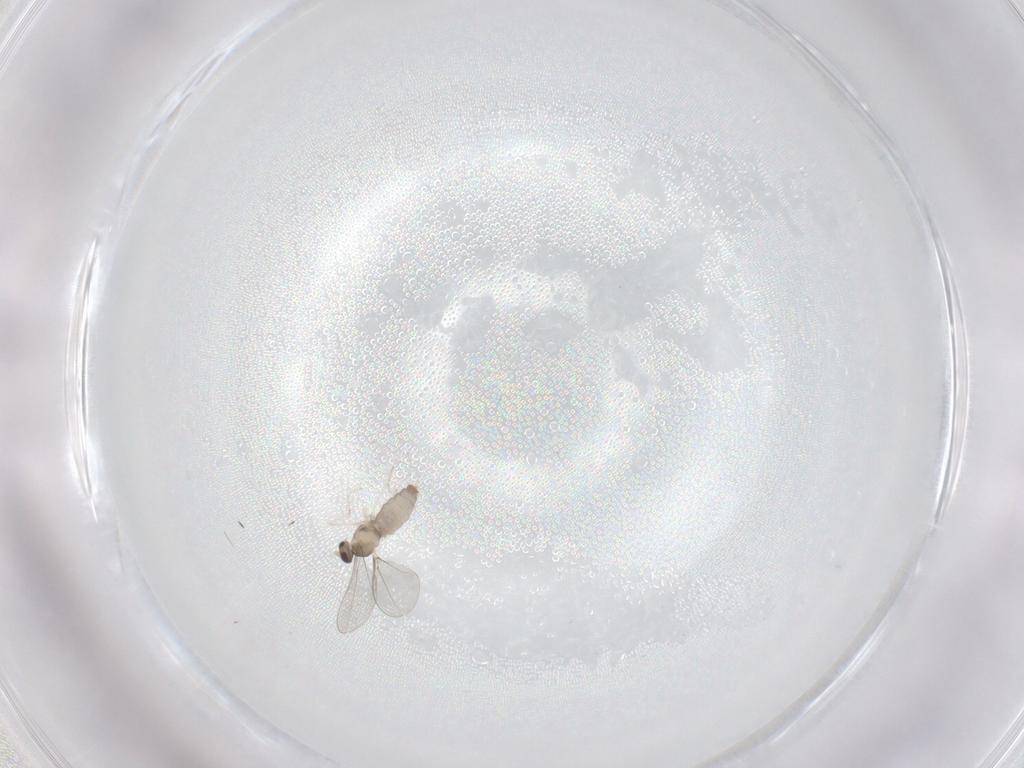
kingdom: Animalia
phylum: Arthropoda
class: Insecta
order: Diptera
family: Cecidomyiidae
